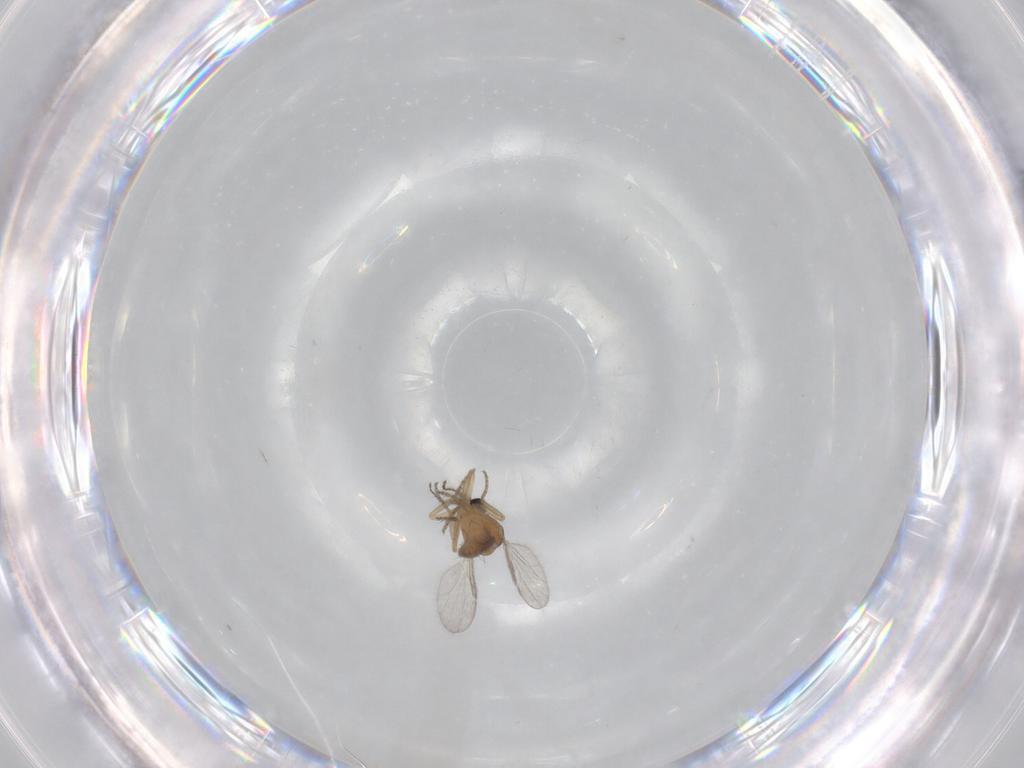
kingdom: Animalia
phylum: Arthropoda
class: Insecta
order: Diptera
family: Ceratopogonidae
